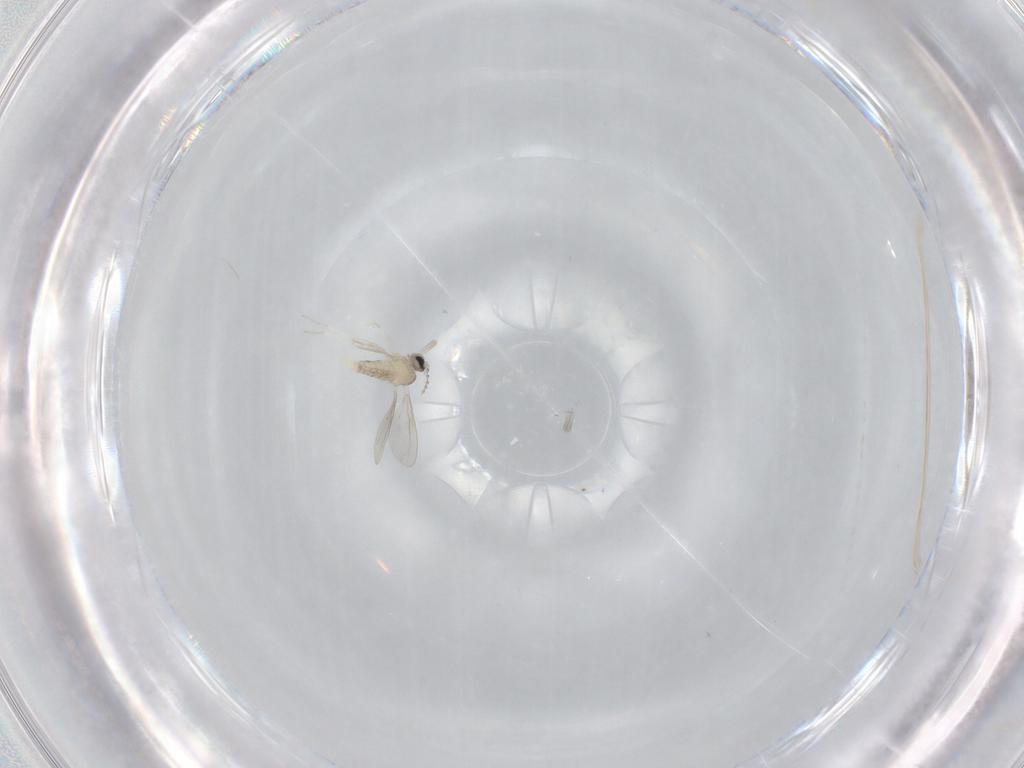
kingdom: Animalia
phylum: Arthropoda
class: Insecta
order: Diptera
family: Cecidomyiidae
